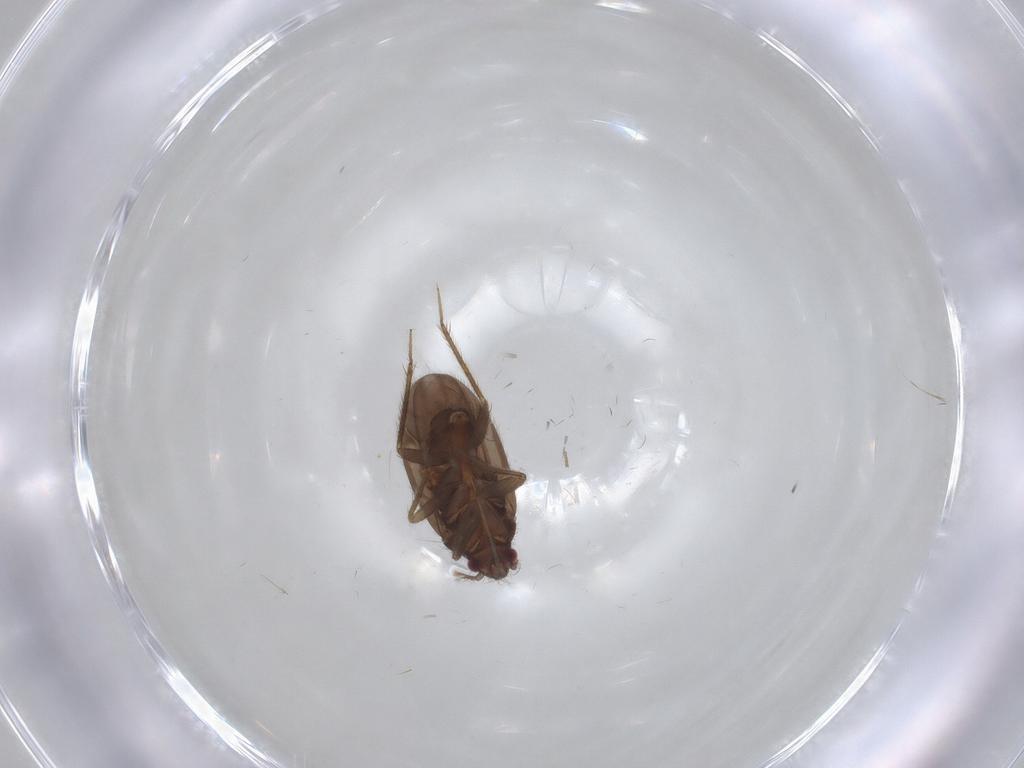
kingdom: Animalia
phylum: Arthropoda
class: Insecta
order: Hemiptera
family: Ceratocombidae
